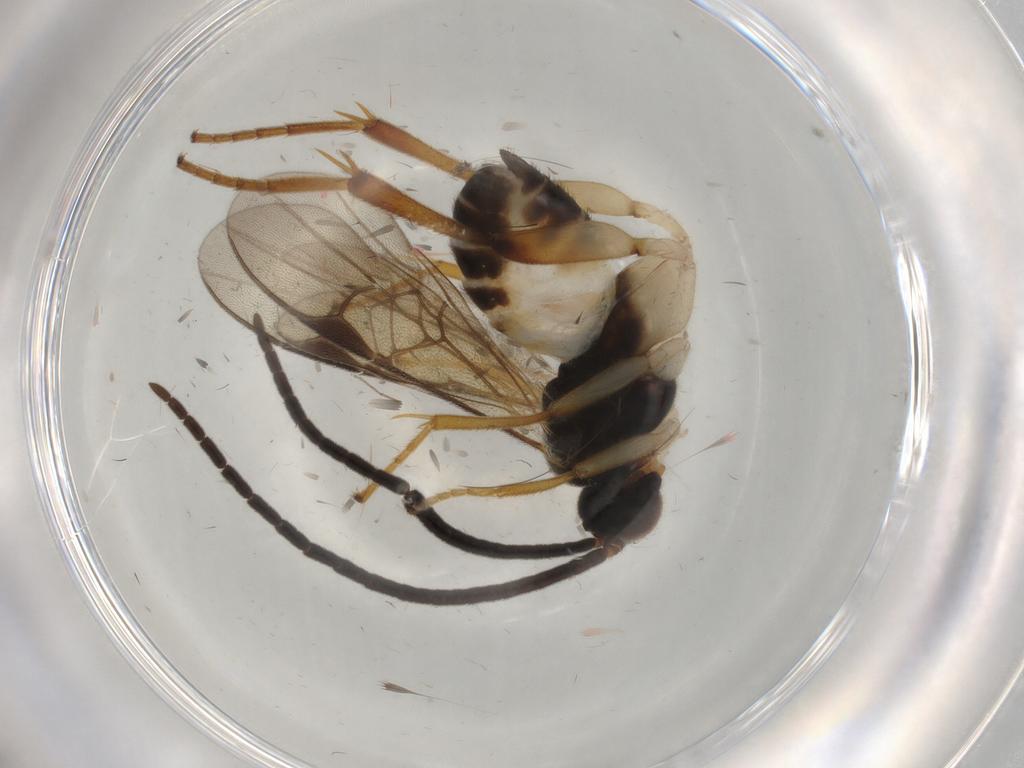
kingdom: Animalia
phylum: Arthropoda
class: Insecta
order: Hymenoptera
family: Braconidae
